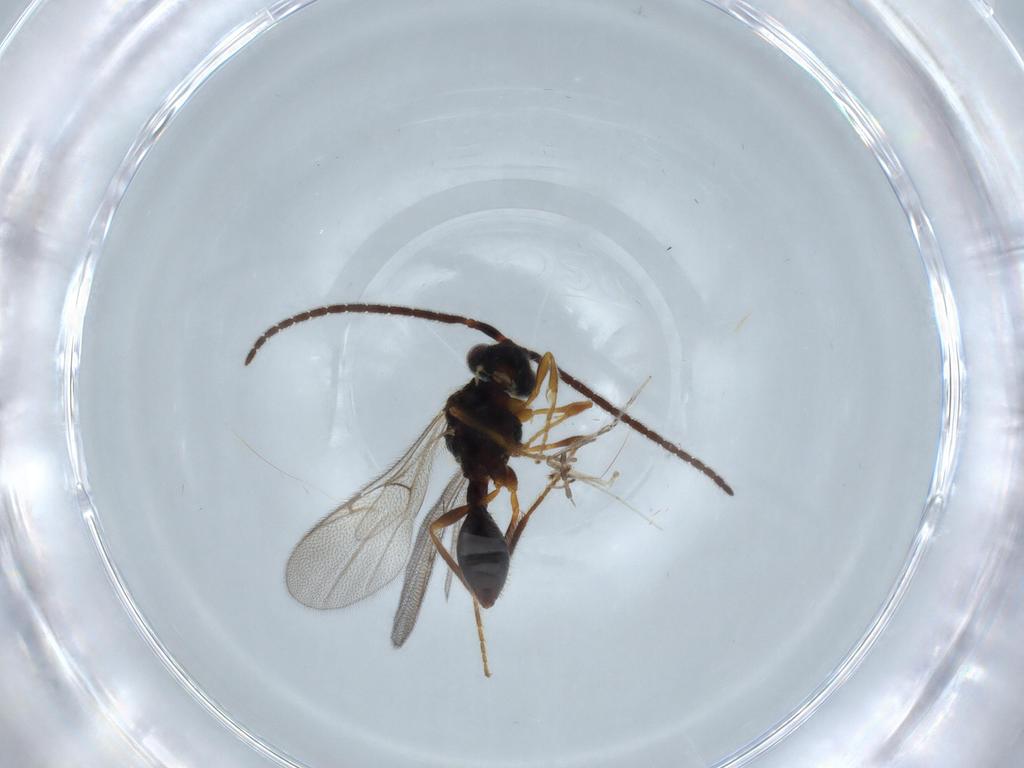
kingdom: Animalia
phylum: Arthropoda
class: Insecta
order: Hymenoptera
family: Diapriidae
